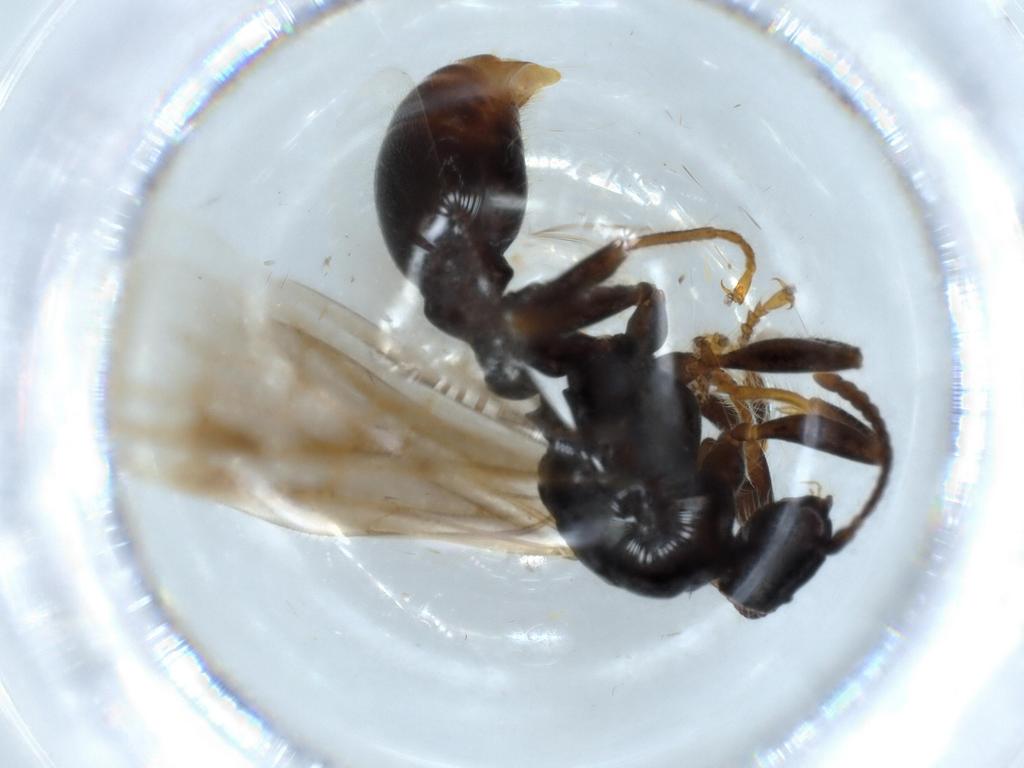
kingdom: Animalia
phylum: Arthropoda
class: Insecta
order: Hymenoptera
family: Formicidae
